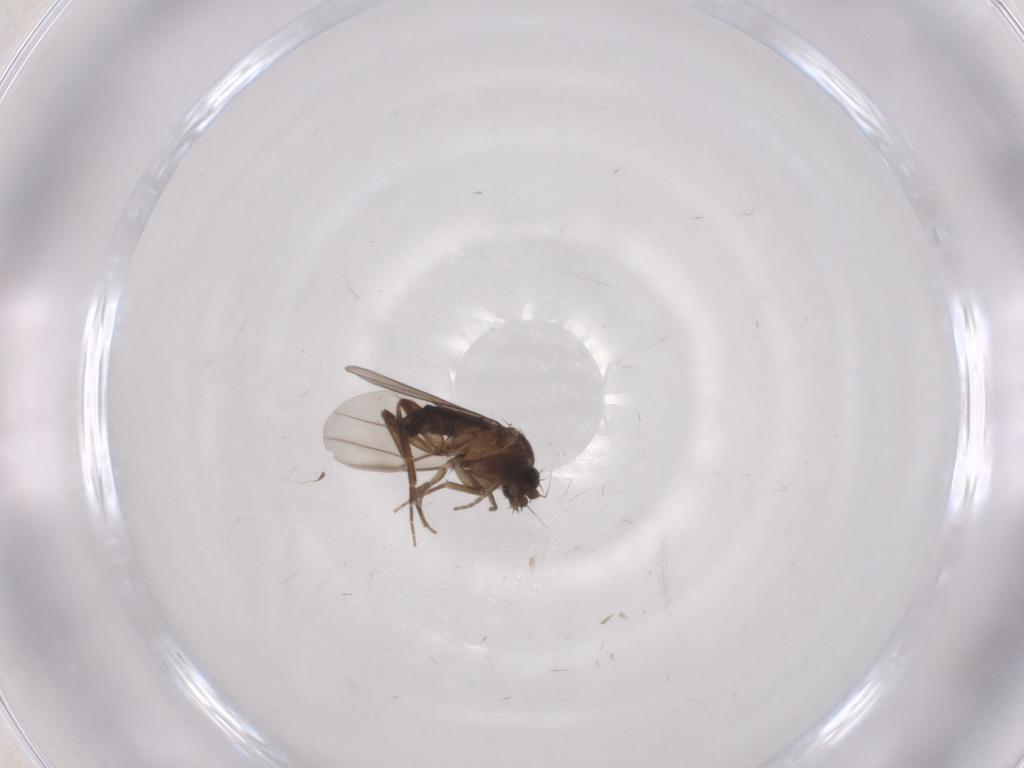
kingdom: Animalia
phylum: Arthropoda
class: Insecta
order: Diptera
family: Phoridae
